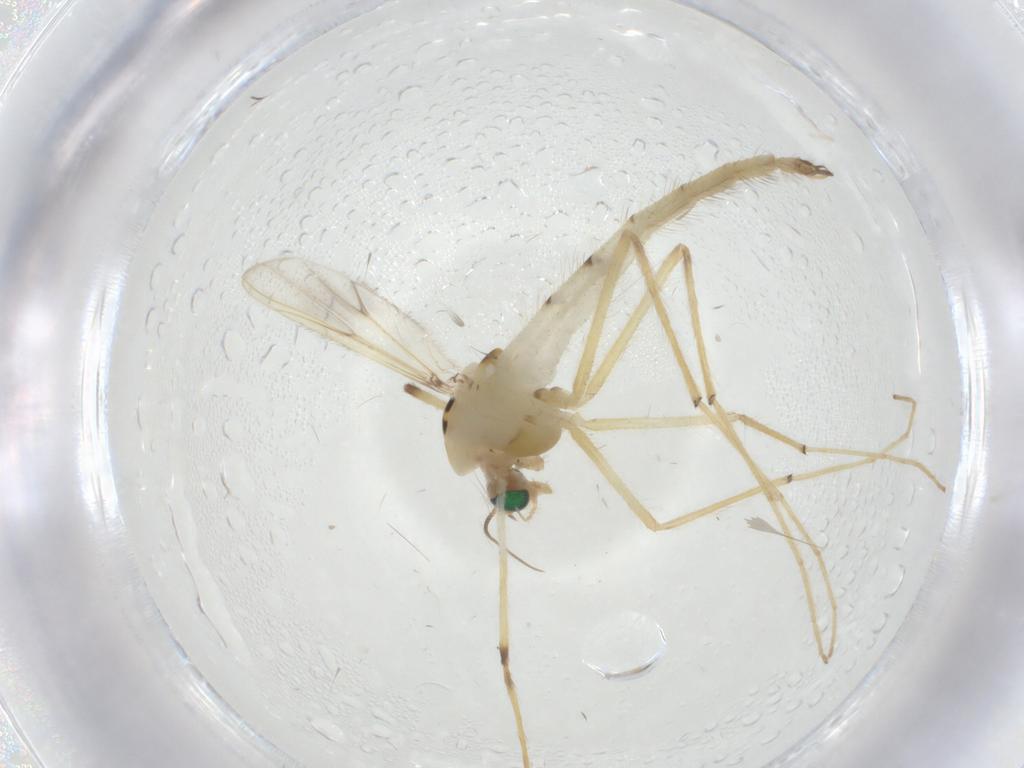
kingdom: Animalia
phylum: Arthropoda
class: Insecta
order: Diptera
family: Chironomidae
